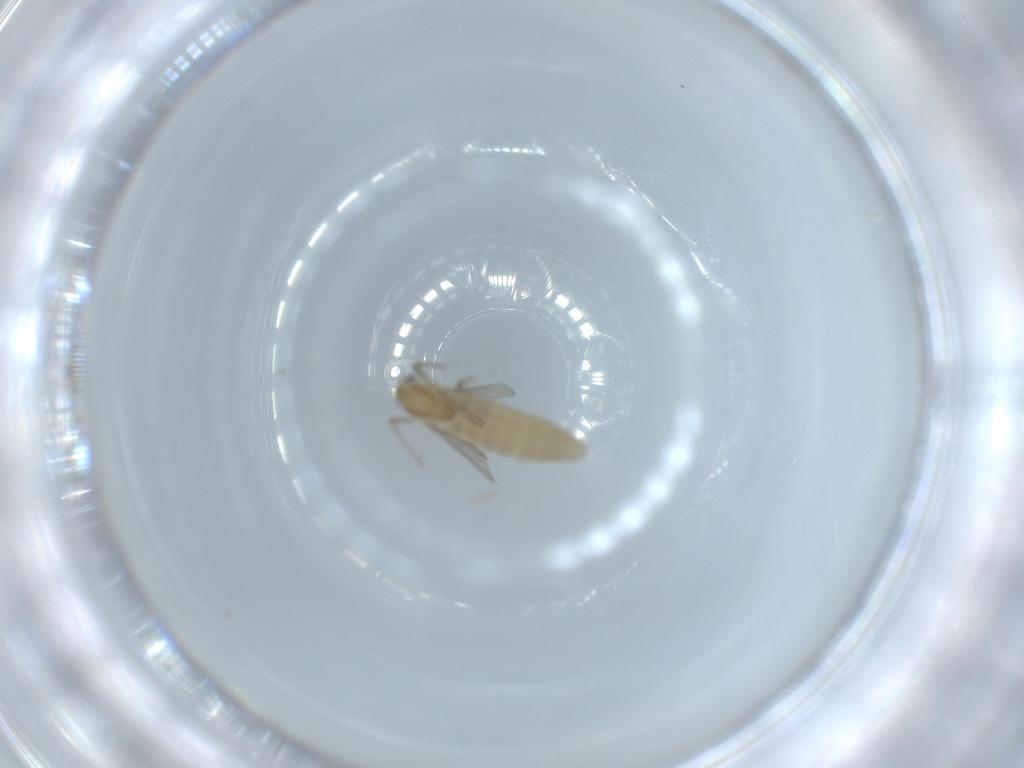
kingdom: Animalia
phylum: Arthropoda
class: Insecta
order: Diptera
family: Chironomidae
